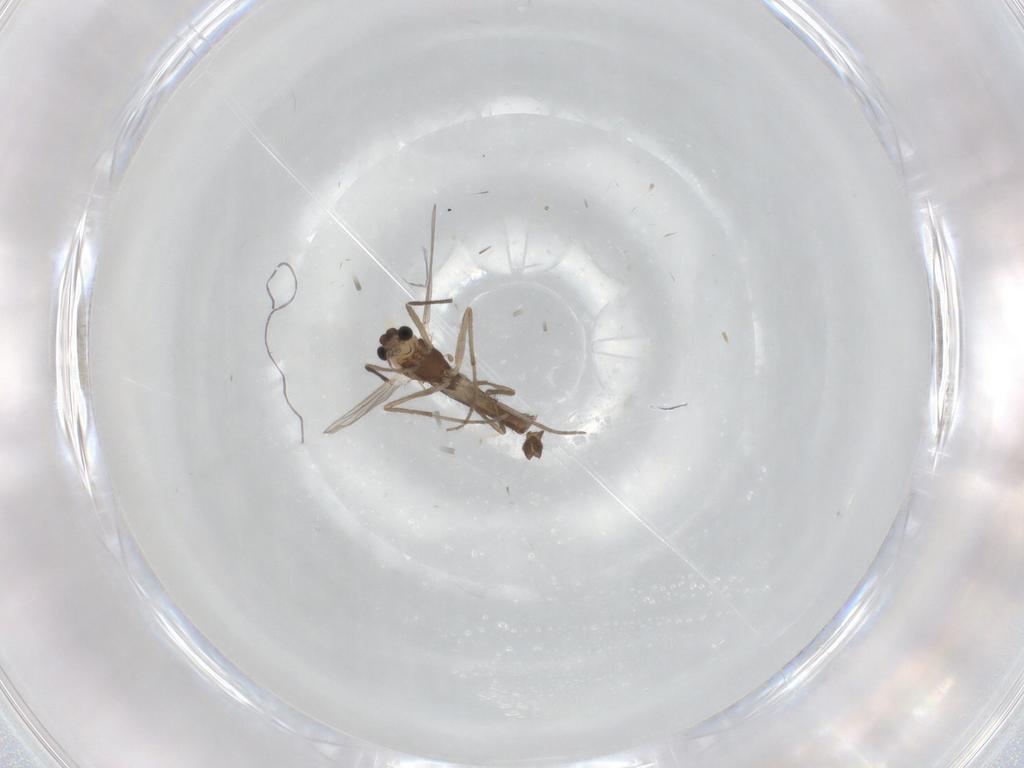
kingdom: Animalia
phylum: Arthropoda
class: Insecta
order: Diptera
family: Chironomidae
